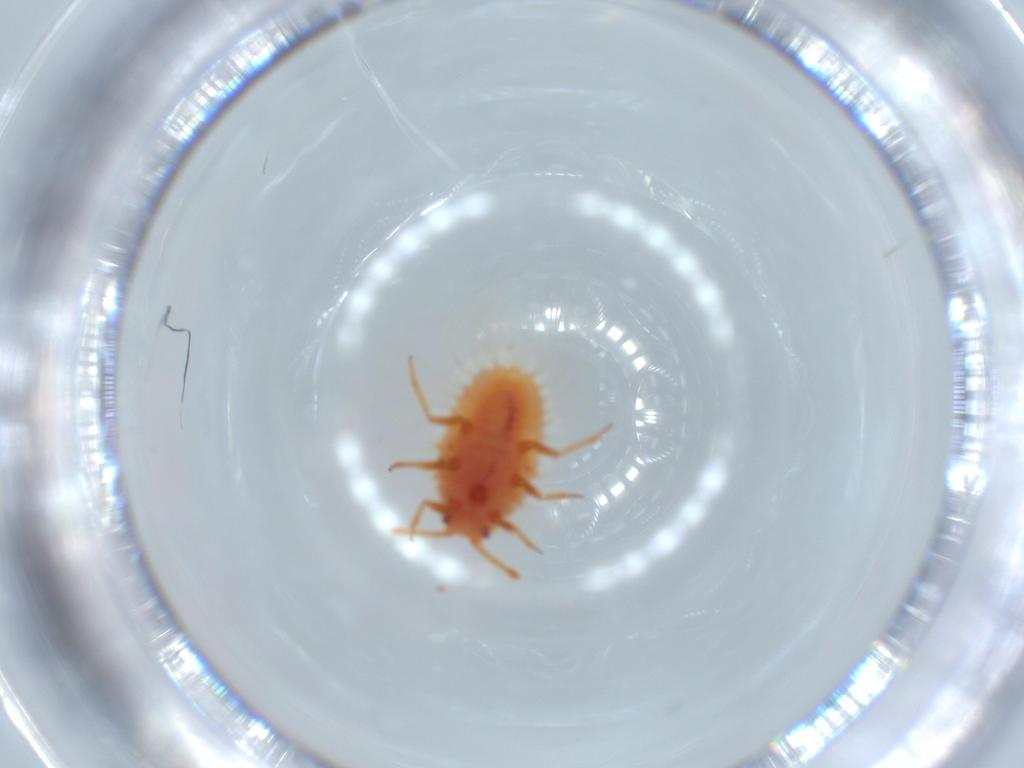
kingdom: Animalia
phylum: Arthropoda
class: Insecta
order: Hemiptera
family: Coccoidea_incertae_sedis
